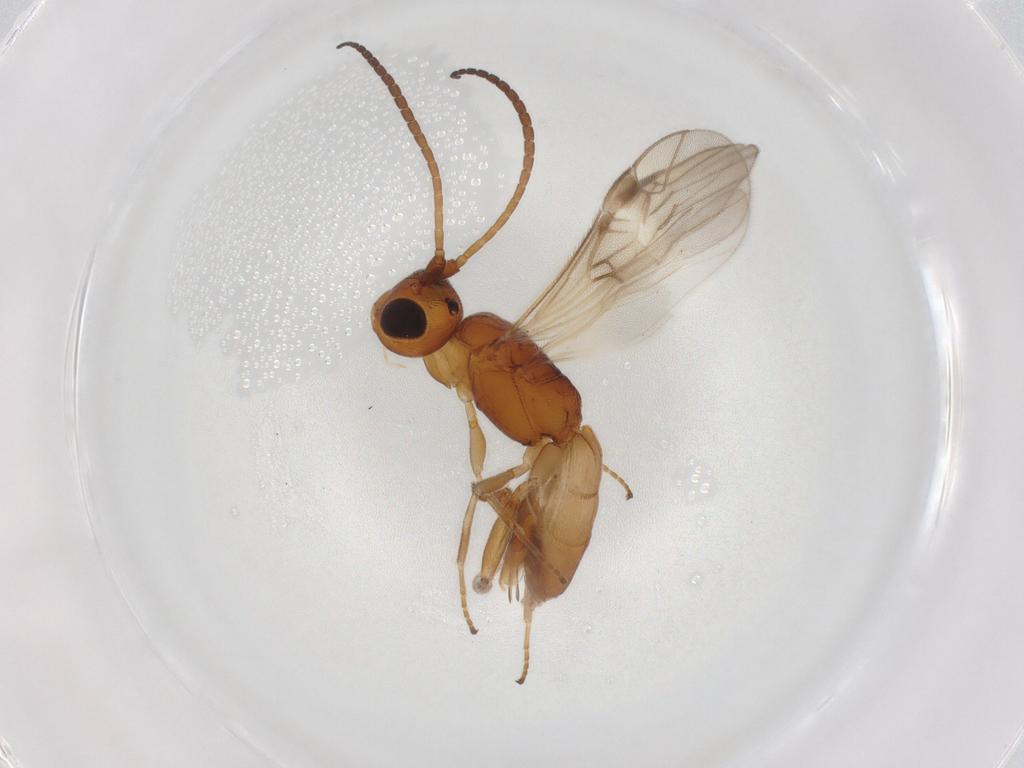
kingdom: Animalia
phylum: Arthropoda
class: Insecta
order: Hymenoptera
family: Braconidae
